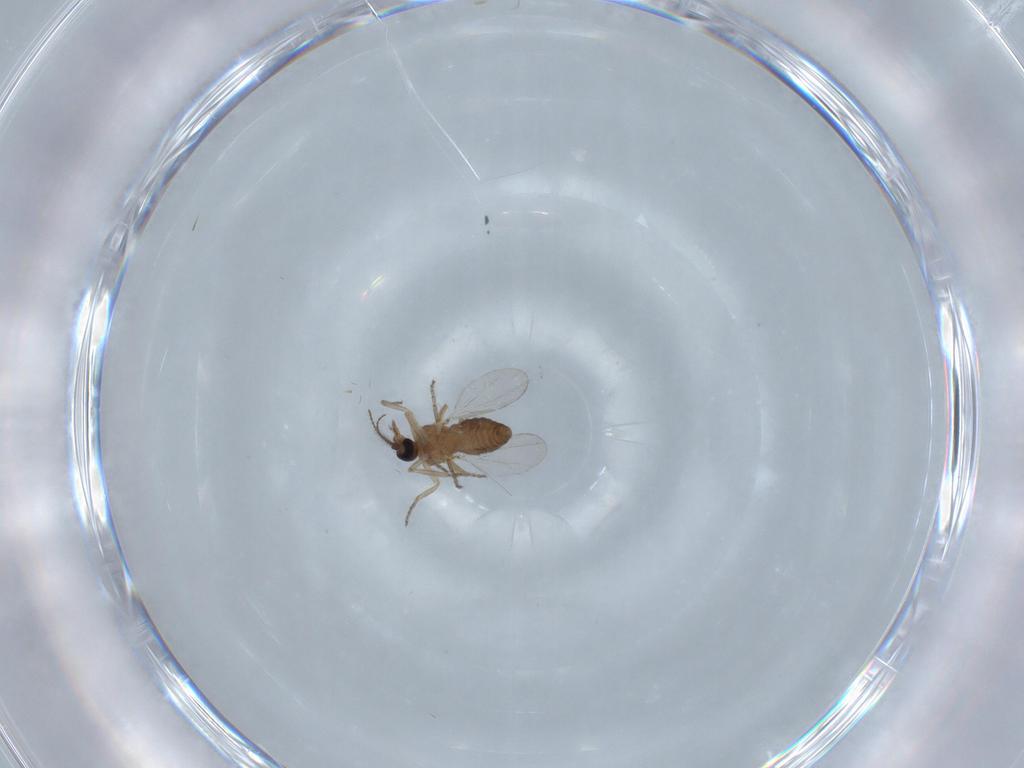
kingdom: Animalia
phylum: Arthropoda
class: Insecta
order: Diptera
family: Ceratopogonidae
